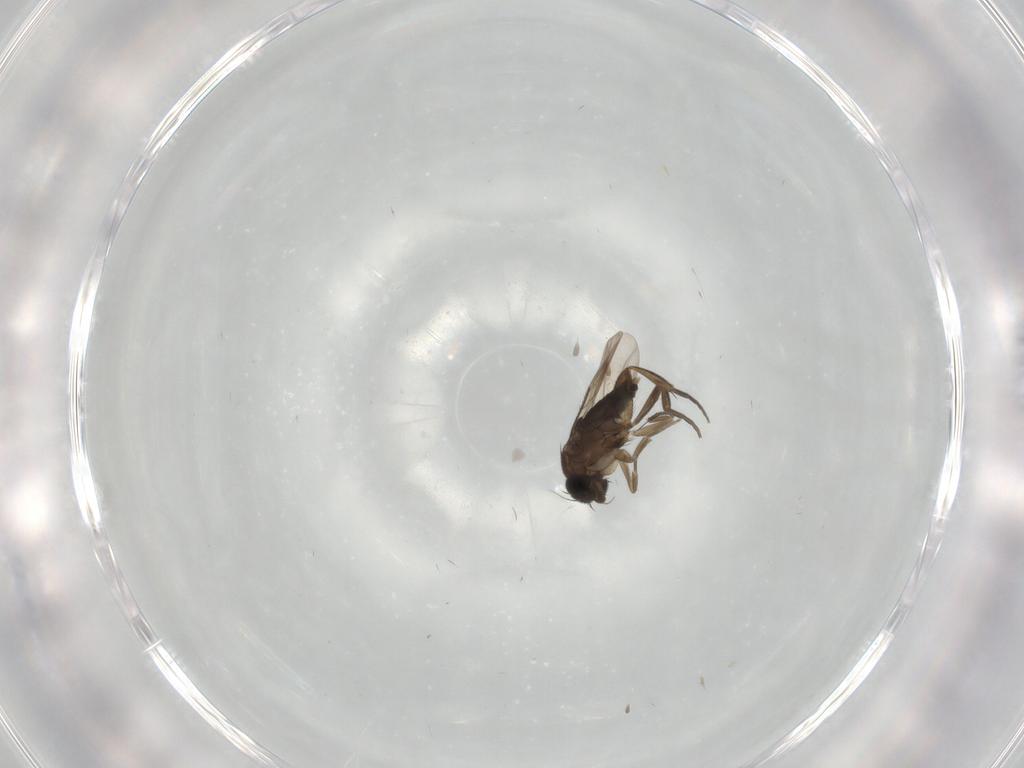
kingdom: Animalia
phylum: Arthropoda
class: Insecta
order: Diptera
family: Phoridae
